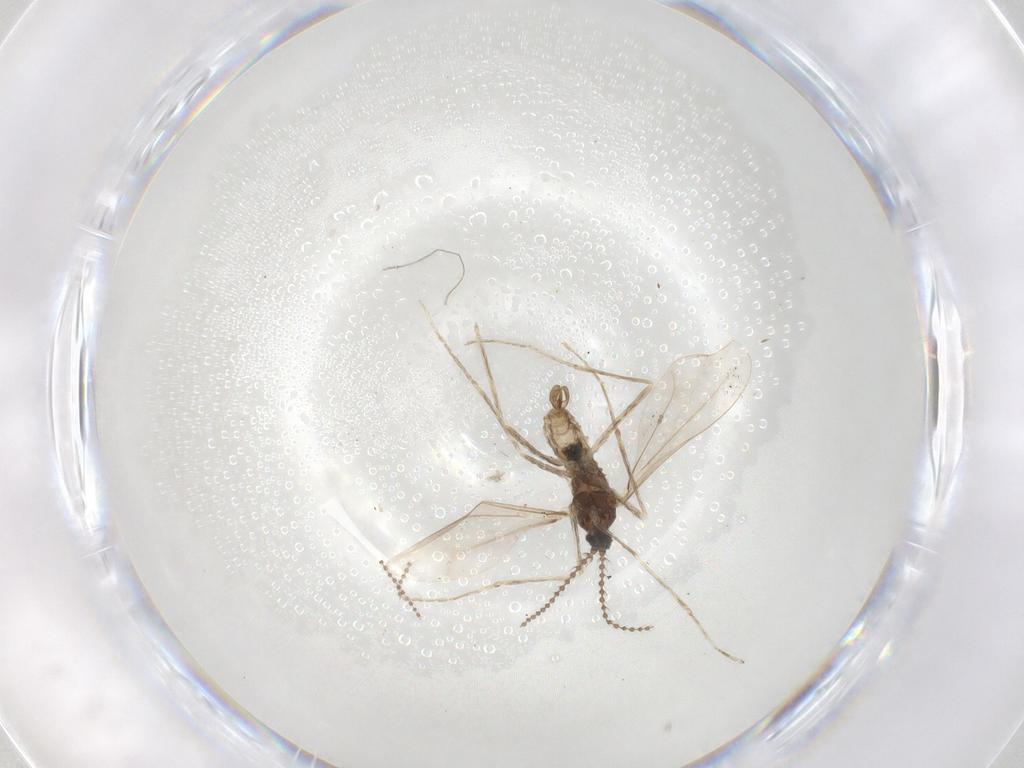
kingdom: Animalia
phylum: Arthropoda
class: Insecta
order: Diptera
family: Cecidomyiidae
